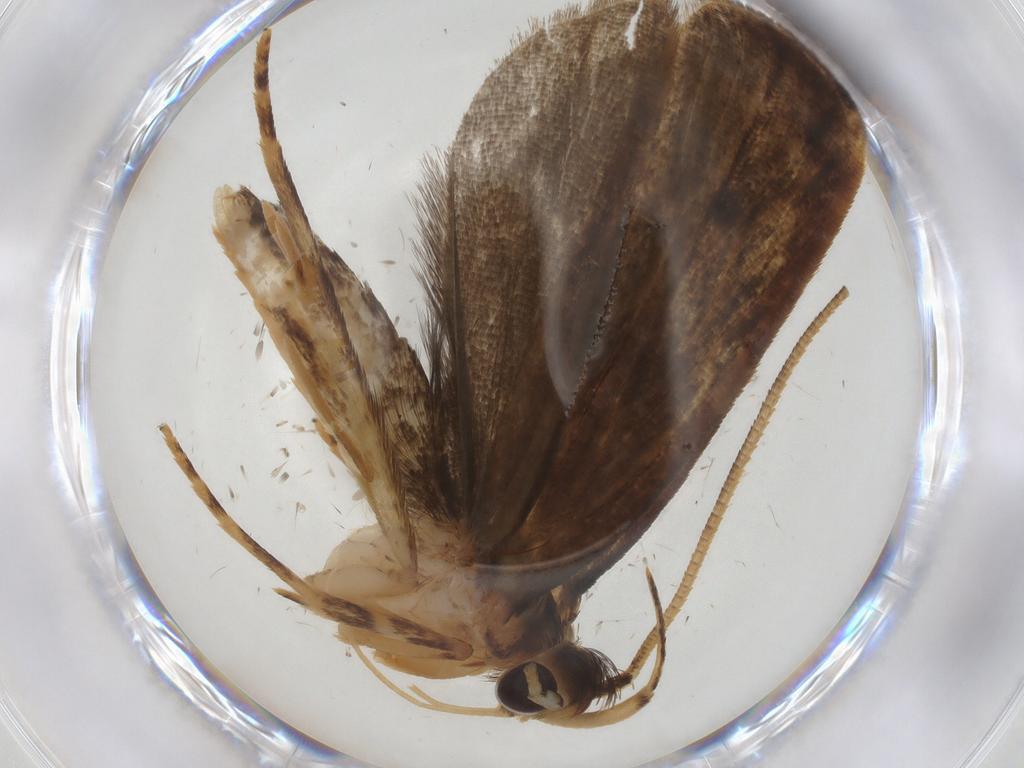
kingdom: Animalia
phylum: Arthropoda
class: Insecta
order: Lepidoptera
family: Gelechiidae
